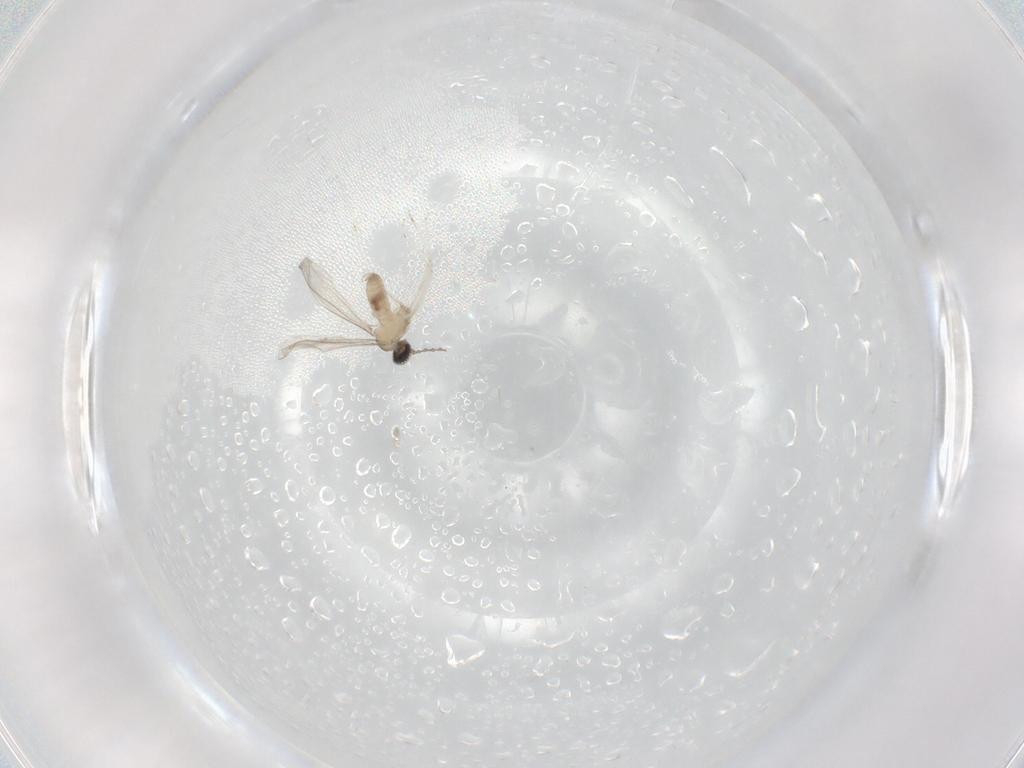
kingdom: Animalia
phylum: Arthropoda
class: Insecta
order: Diptera
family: Cecidomyiidae
